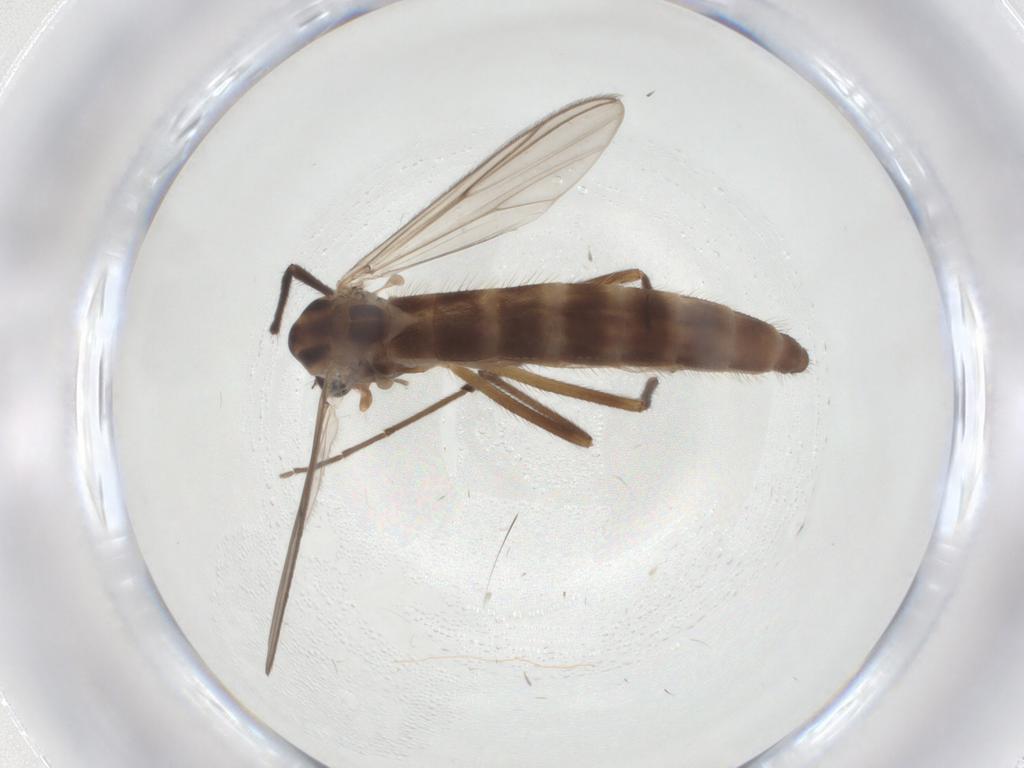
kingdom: Animalia
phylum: Arthropoda
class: Insecta
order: Diptera
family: Chironomidae
